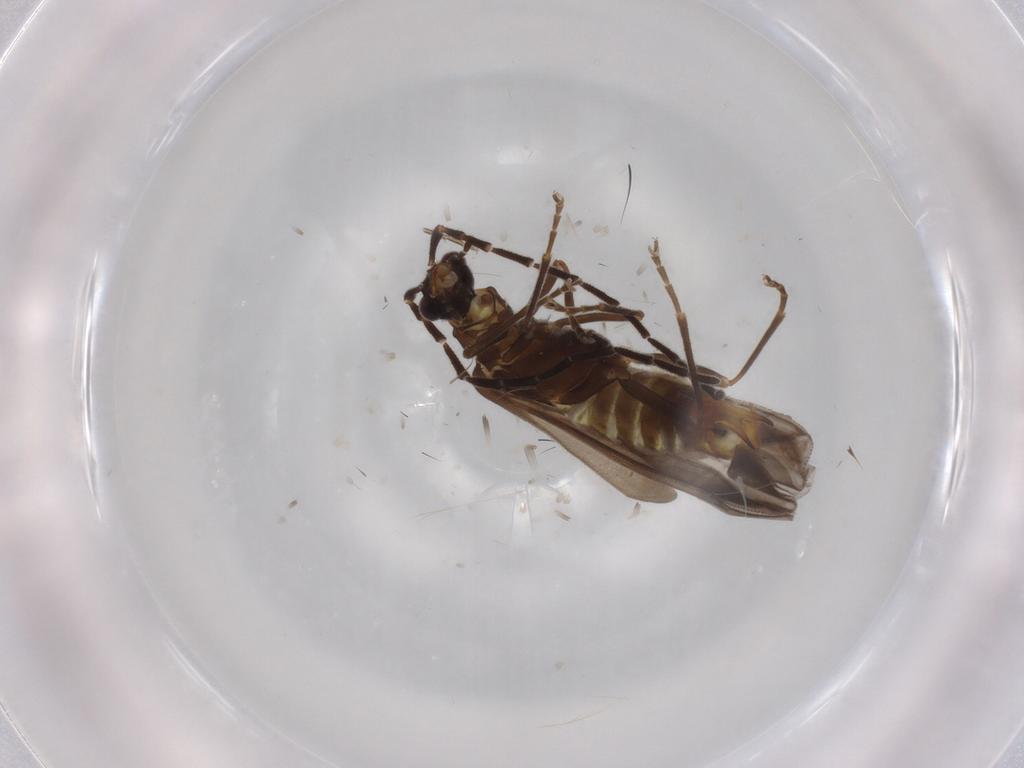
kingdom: Animalia
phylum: Arthropoda
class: Insecta
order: Coleoptera
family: Cantharidae
